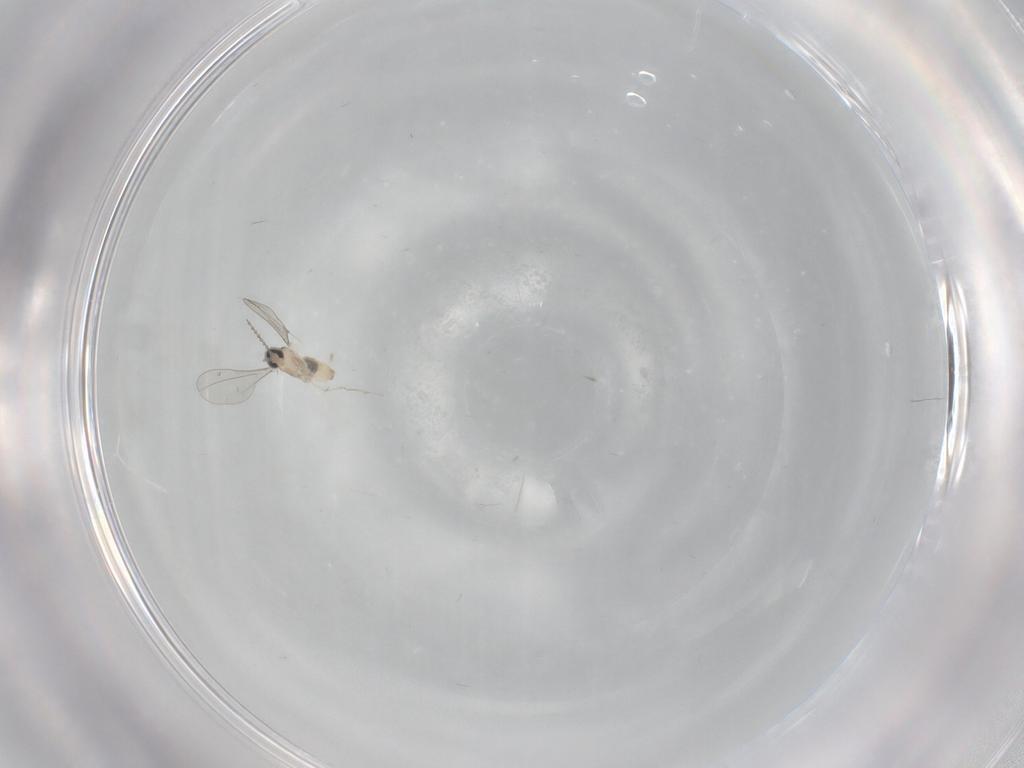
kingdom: Animalia
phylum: Arthropoda
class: Insecta
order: Diptera
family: Cecidomyiidae
